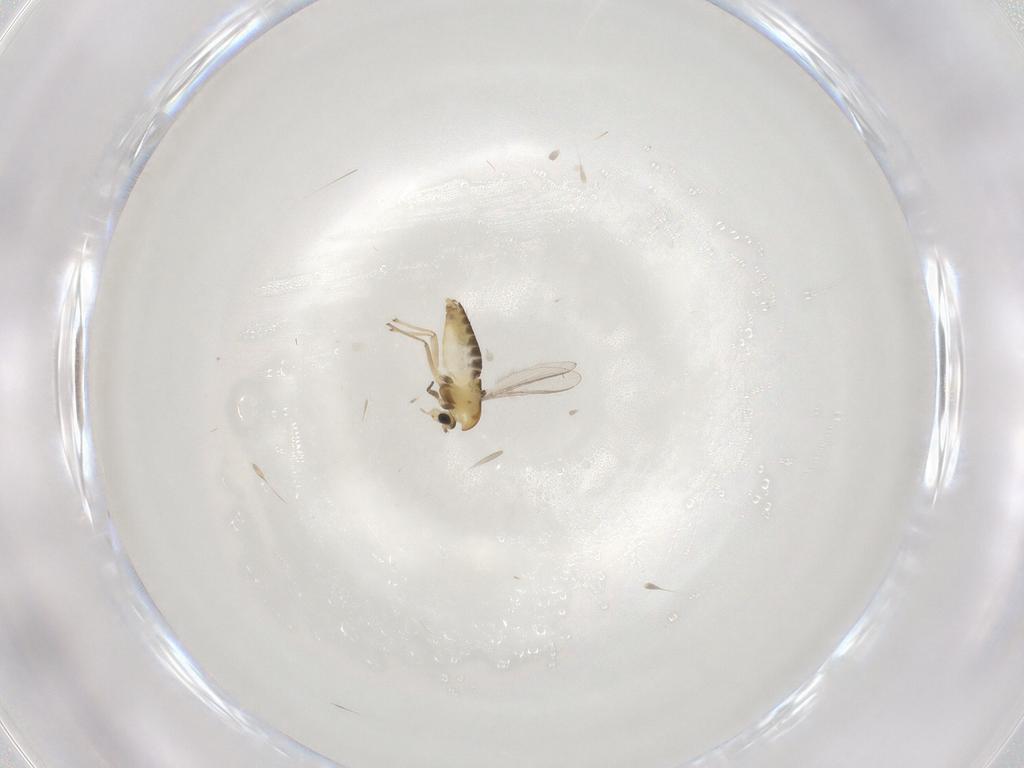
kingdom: Animalia
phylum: Arthropoda
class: Insecta
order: Diptera
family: Chironomidae
